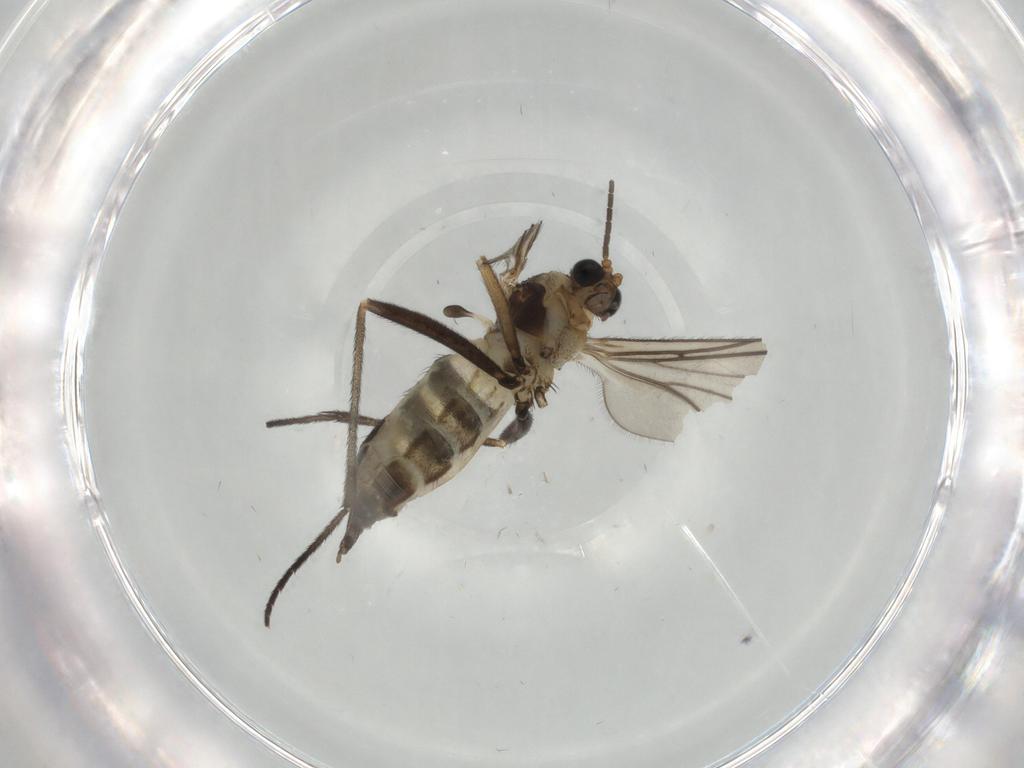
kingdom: Animalia
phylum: Arthropoda
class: Insecta
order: Diptera
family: Sciaridae
